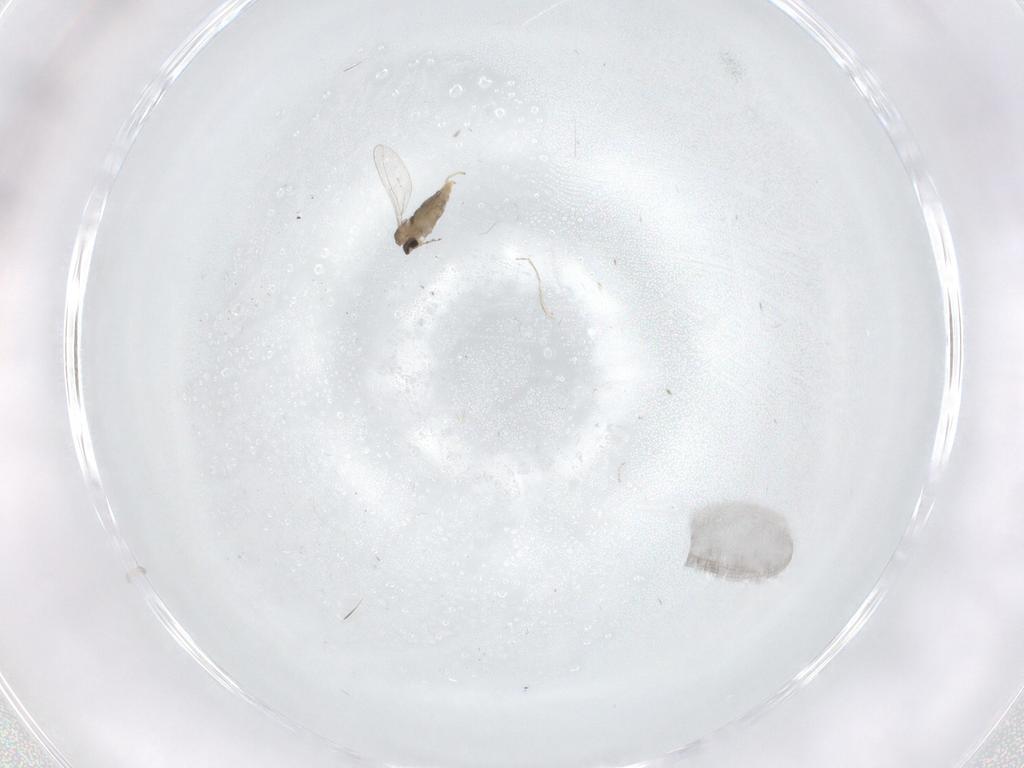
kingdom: Animalia
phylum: Arthropoda
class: Insecta
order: Diptera
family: Cecidomyiidae
